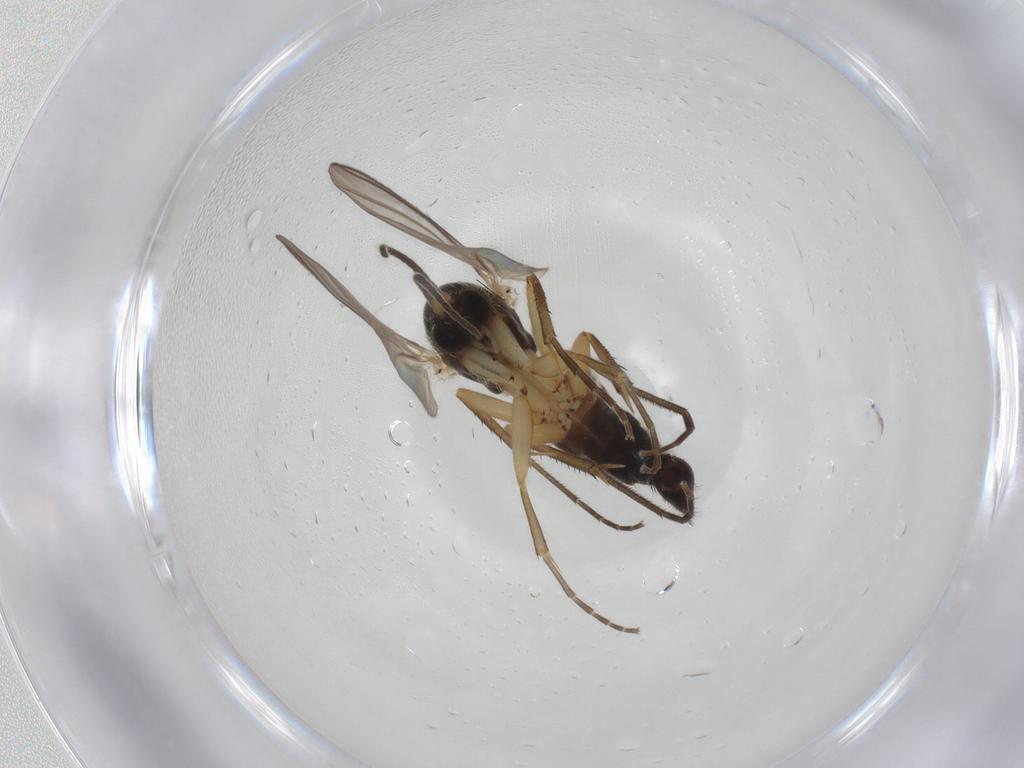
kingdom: Animalia
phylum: Arthropoda
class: Insecta
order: Diptera
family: Mycetophilidae
